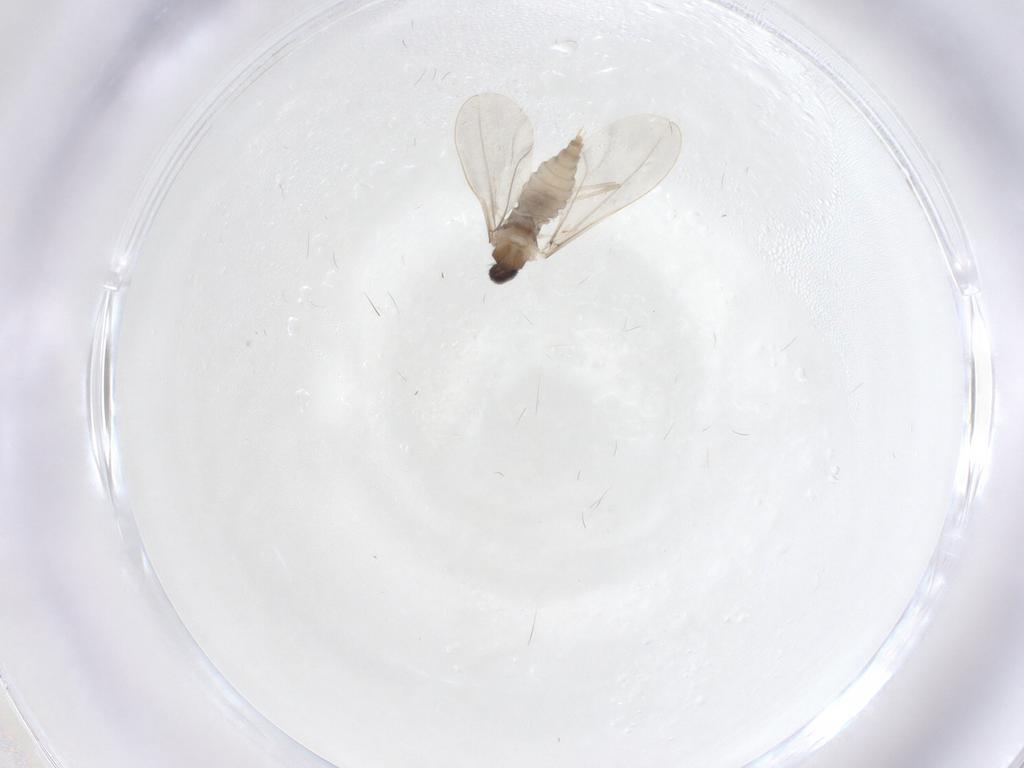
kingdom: Animalia
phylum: Arthropoda
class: Insecta
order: Diptera
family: Cecidomyiidae
